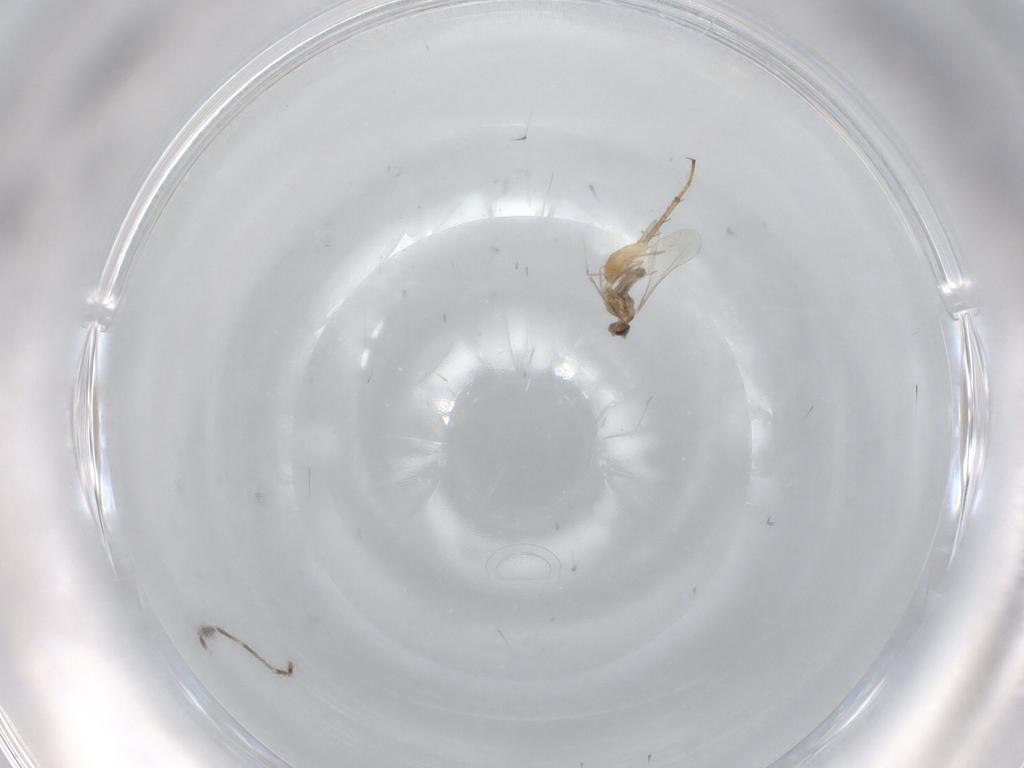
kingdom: Animalia
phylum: Arthropoda
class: Insecta
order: Diptera
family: Cecidomyiidae
